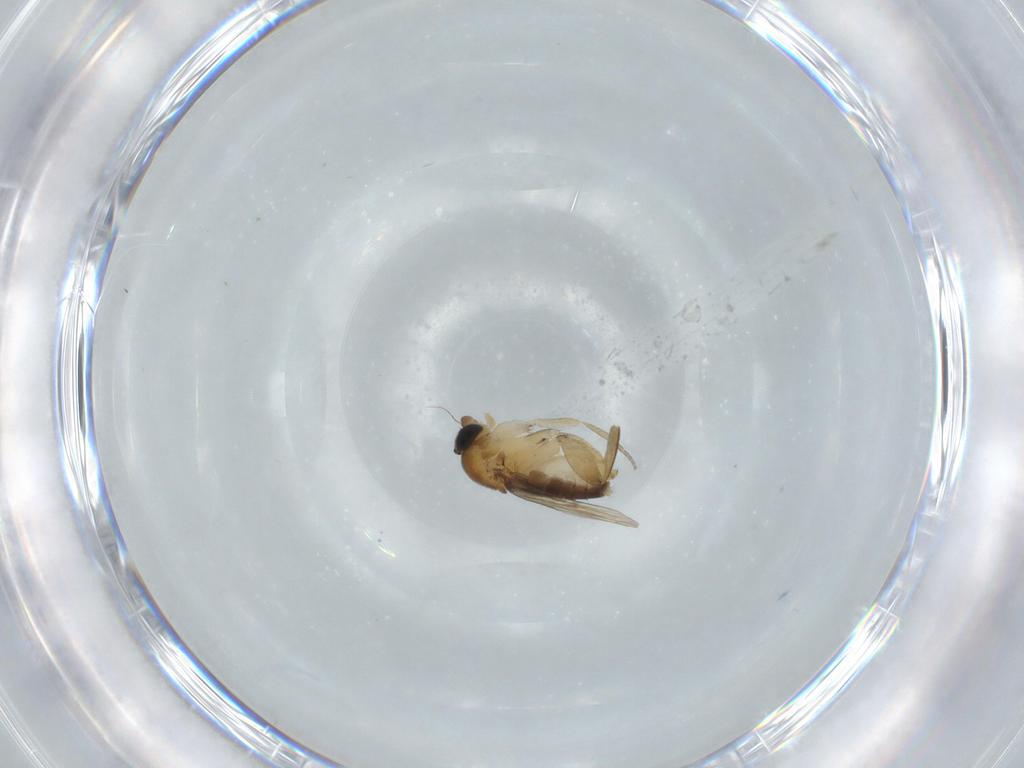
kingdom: Animalia
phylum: Arthropoda
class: Insecta
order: Diptera
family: Phoridae
